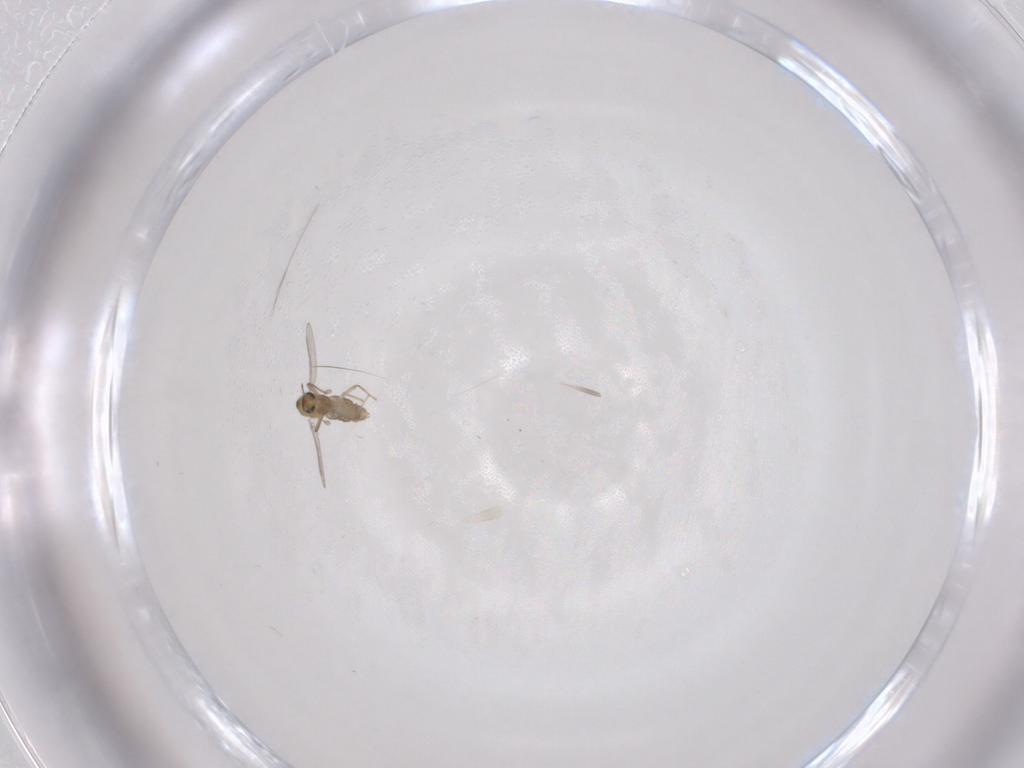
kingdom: Animalia
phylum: Arthropoda
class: Insecta
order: Diptera
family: Chironomidae
